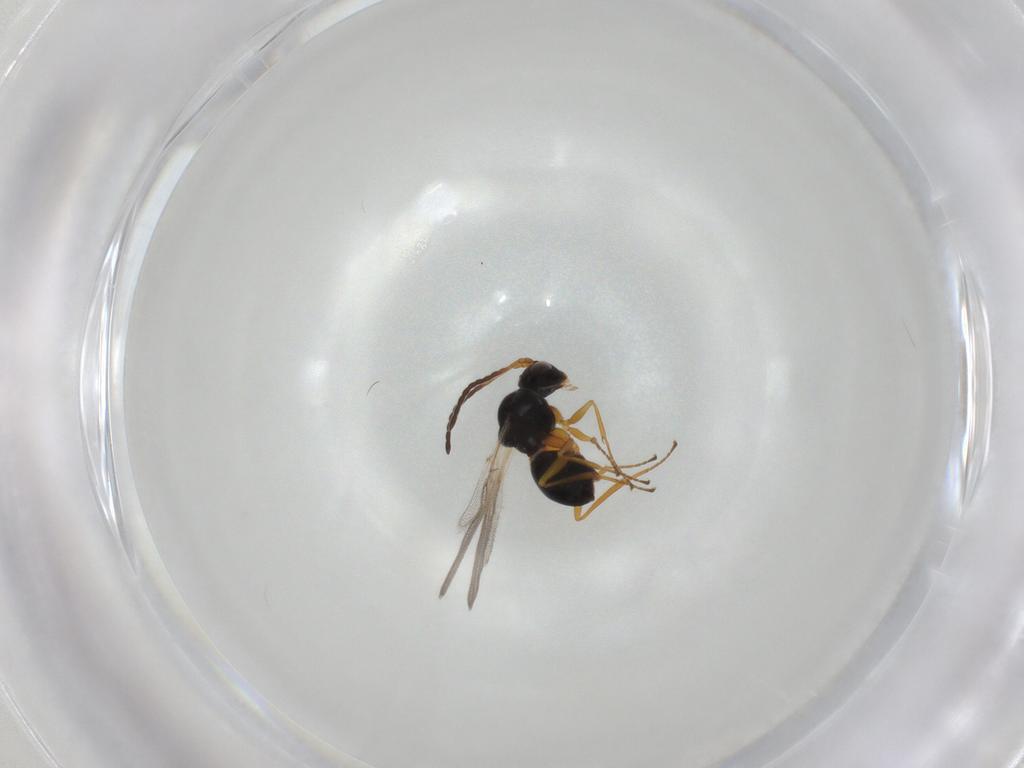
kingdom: Animalia
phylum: Arthropoda
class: Insecta
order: Hymenoptera
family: Figitidae
